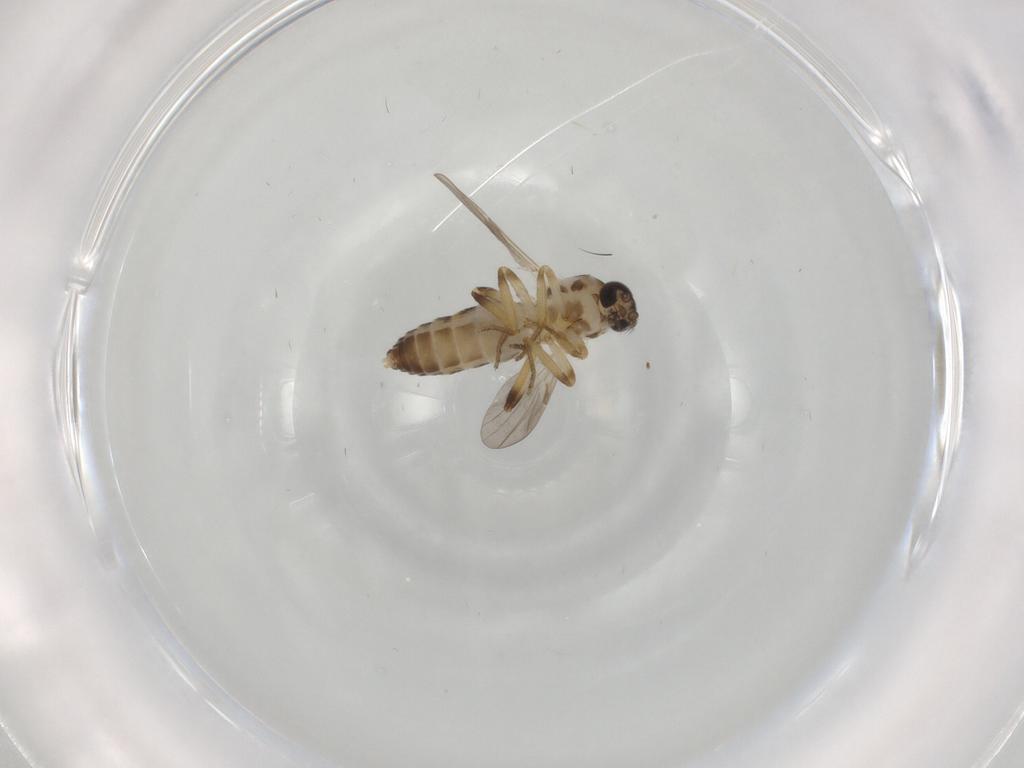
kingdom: Animalia
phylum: Arthropoda
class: Insecta
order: Diptera
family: Ceratopogonidae
